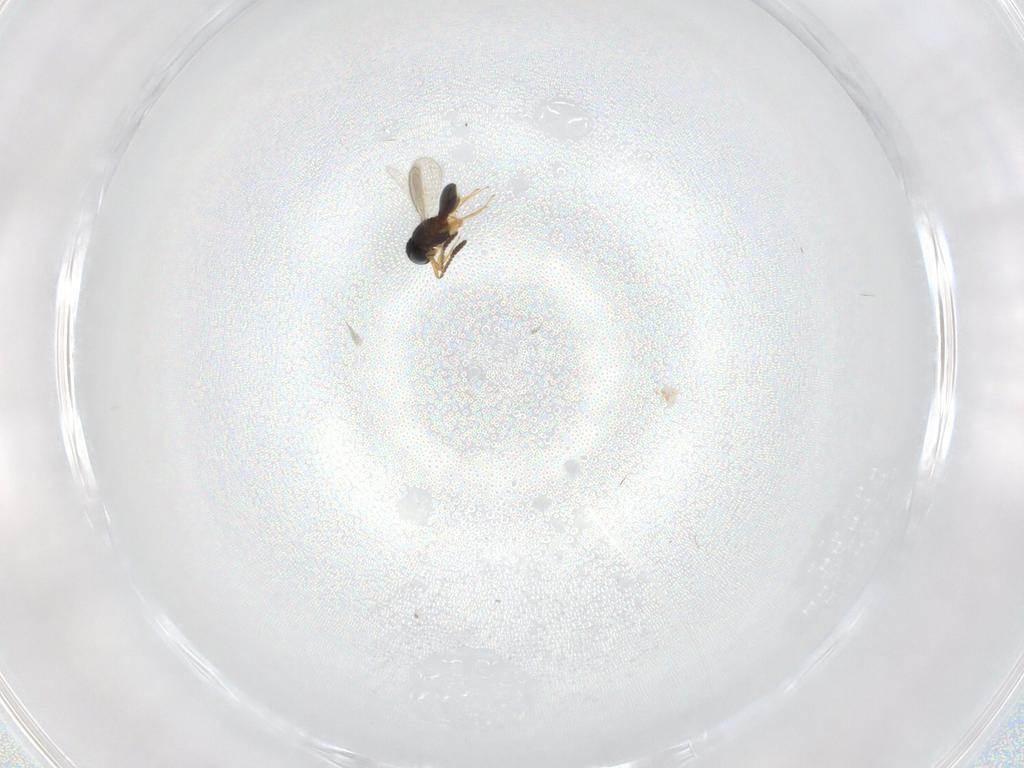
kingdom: Animalia
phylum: Arthropoda
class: Insecta
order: Hymenoptera
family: Scelionidae
